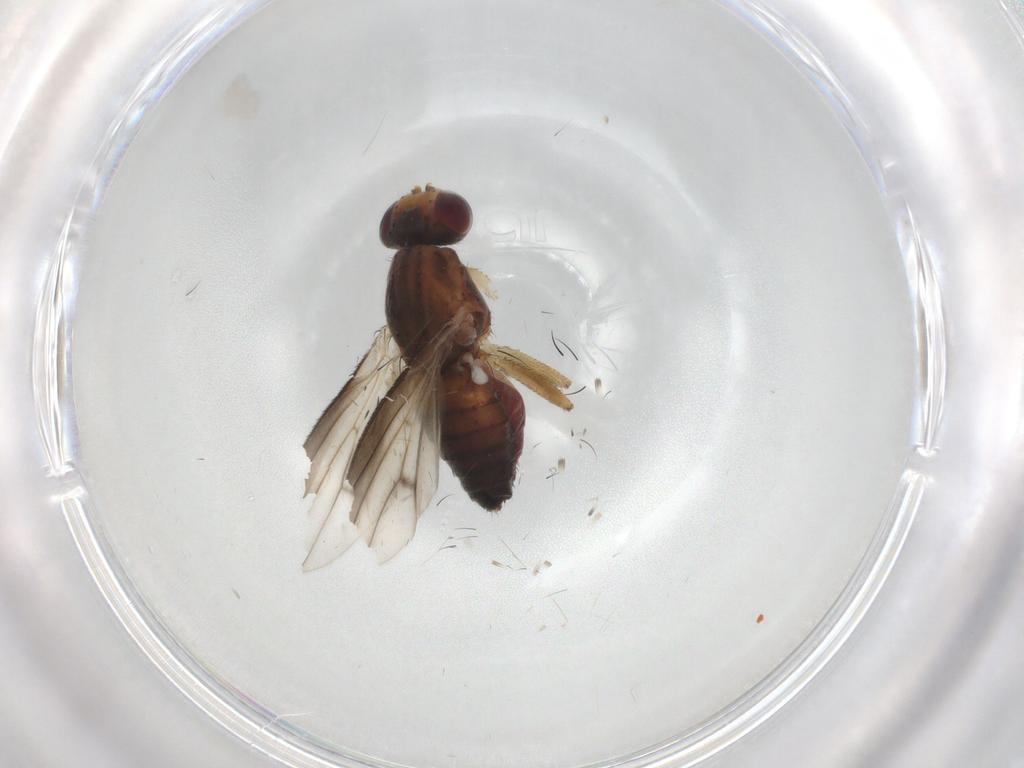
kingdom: Animalia
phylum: Arthropoda
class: Insecta
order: Diptera
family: Heleomyzidae
